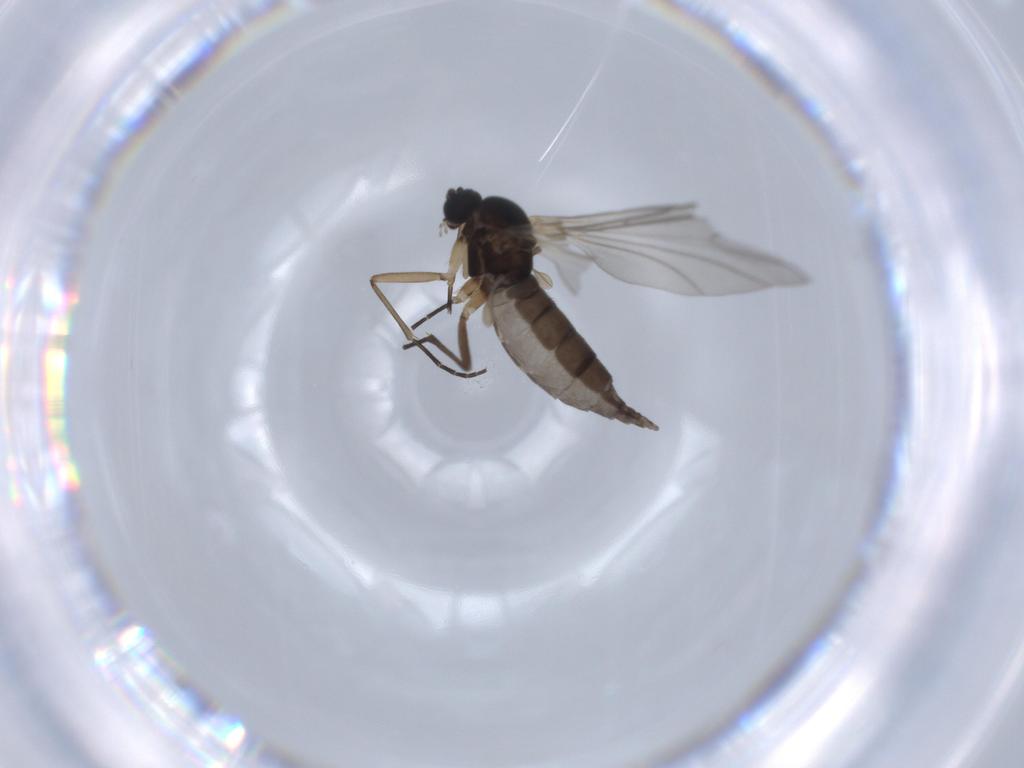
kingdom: Animalia
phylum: Arthropoda
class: Insecta
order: Diptera
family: Sciaridae
